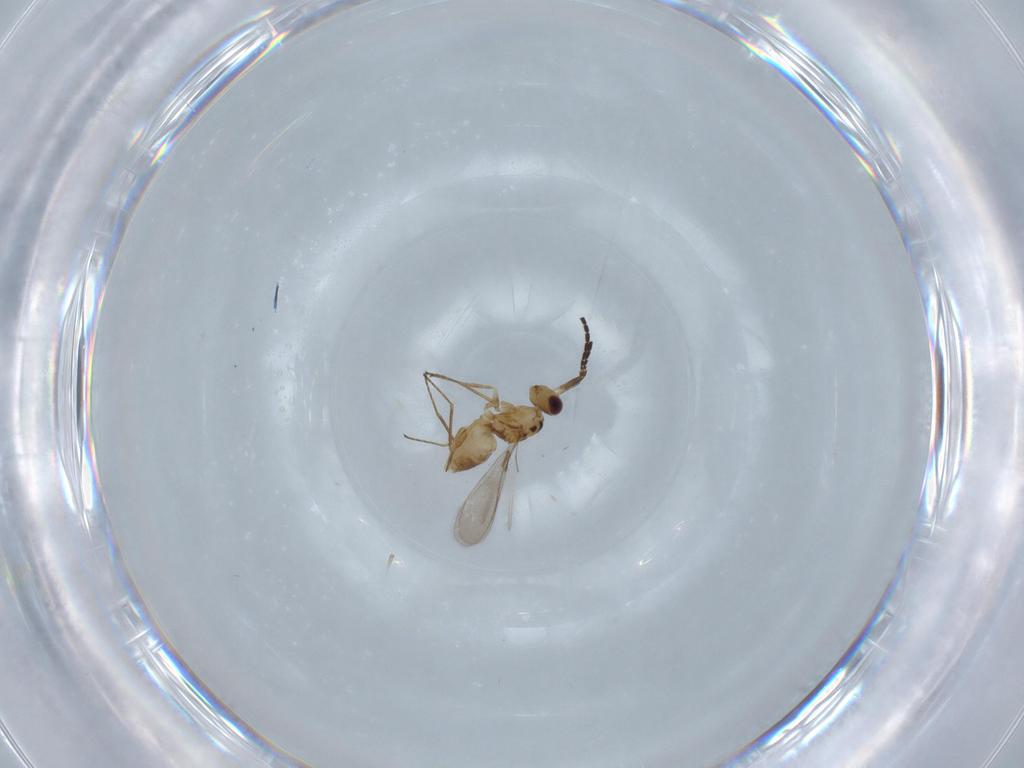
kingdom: Animalia
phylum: Arthropoda
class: Insecta
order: Hymenoptera
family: Mymaridae
